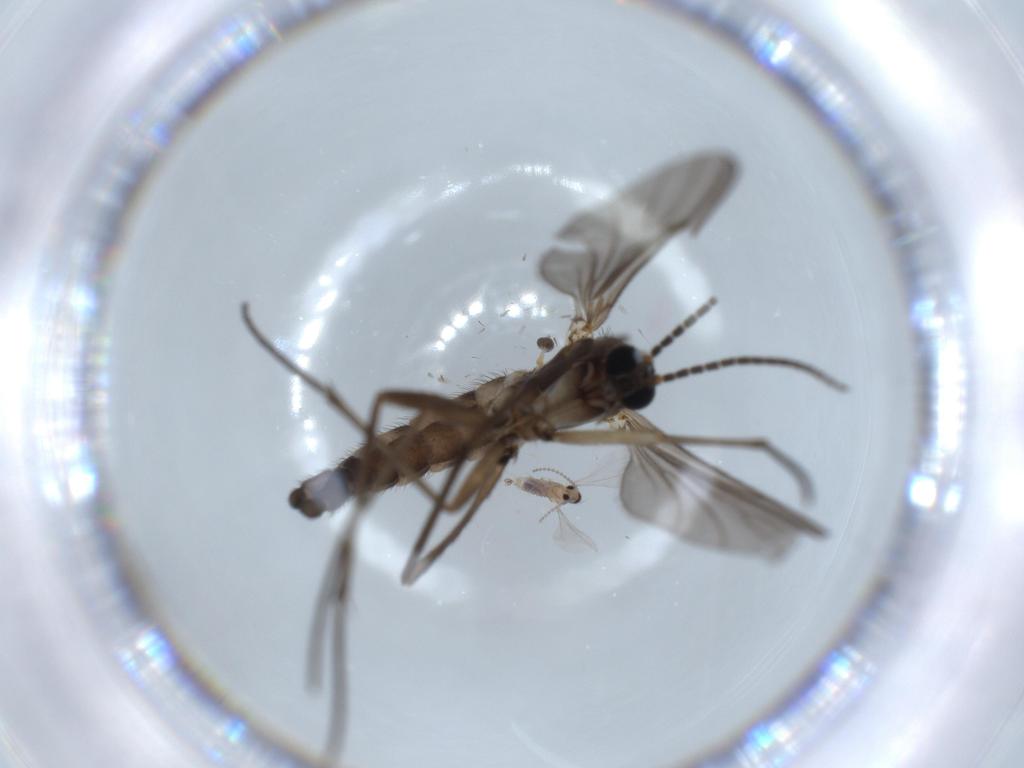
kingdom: Animalia
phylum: Arthropoda
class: Insecta
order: Diptera
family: Sciaridae
